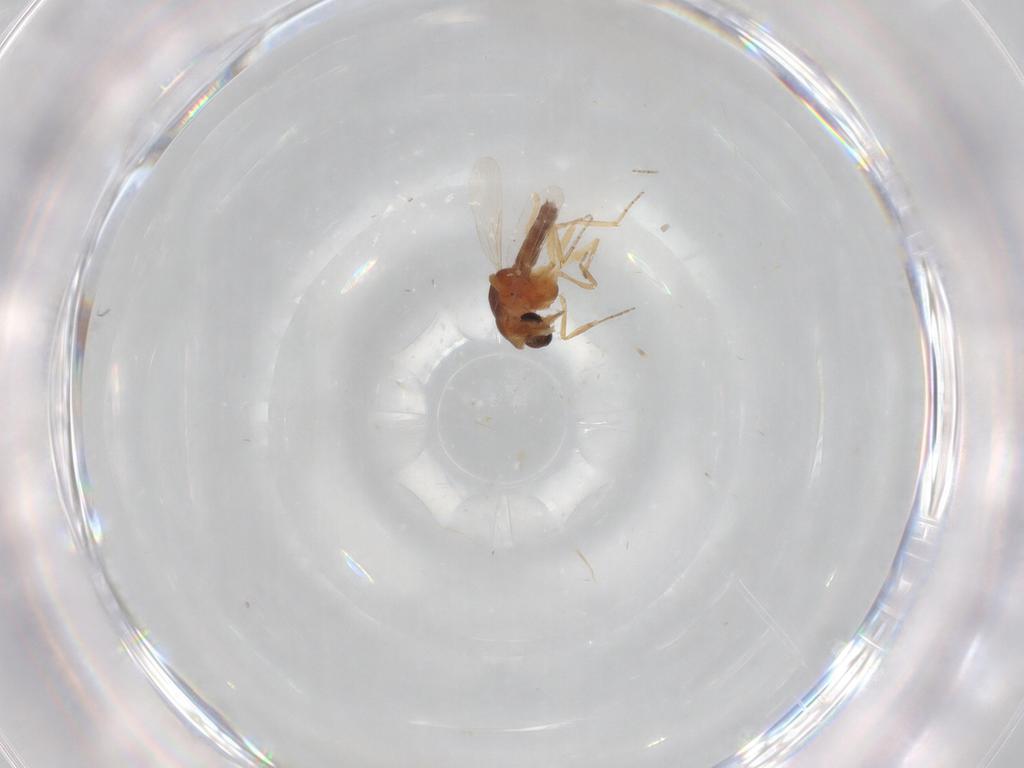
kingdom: Animalia
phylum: Arthropoda
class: Insecta
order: Diptera
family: Ceratopogonidae
